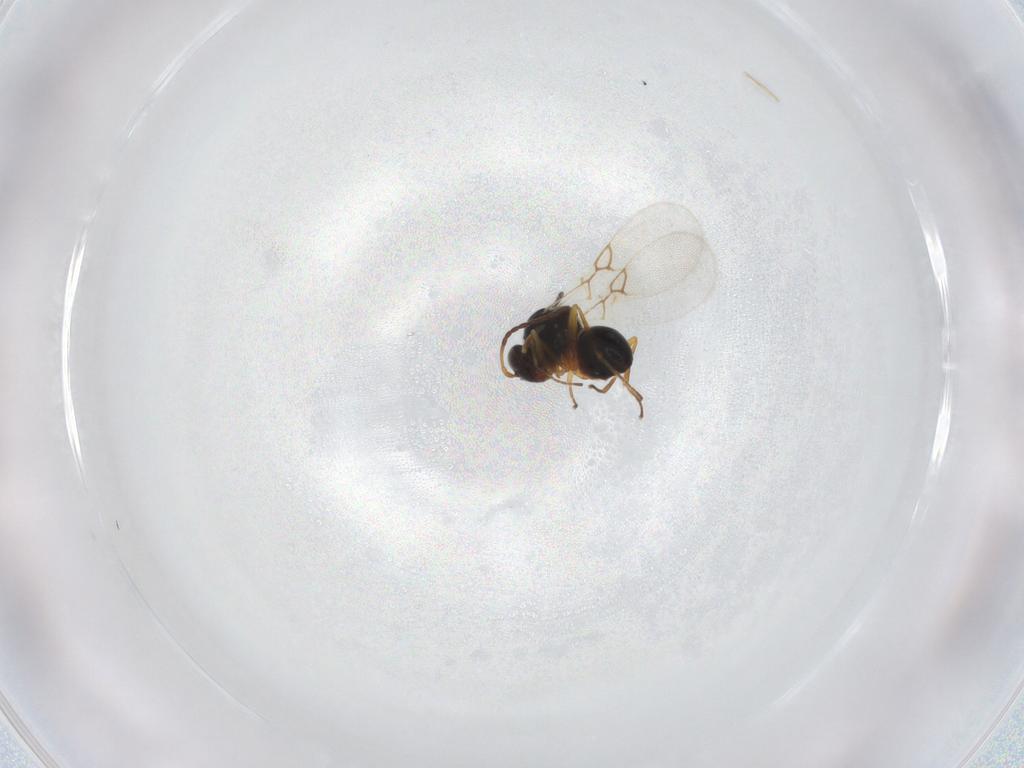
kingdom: Animalia
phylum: Arthropoda
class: Insecta
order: Hymenoptera
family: Figitidae
